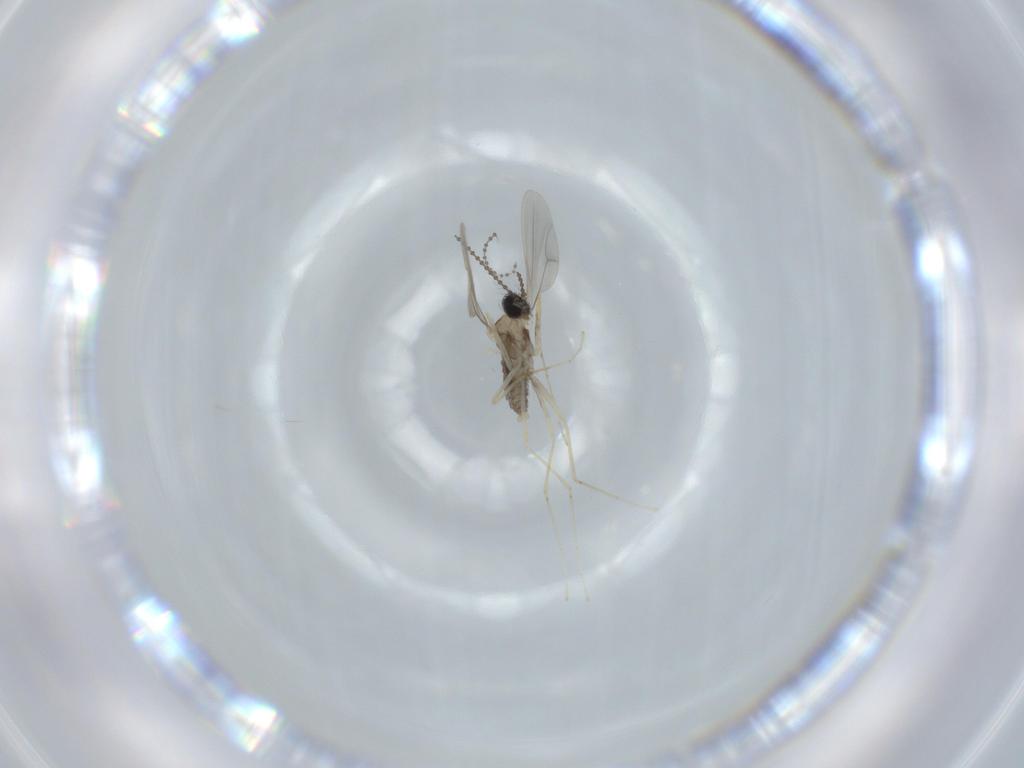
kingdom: Animalia
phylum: Arthropoda
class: Insecta
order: Diptera
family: Cecidomyiidae
